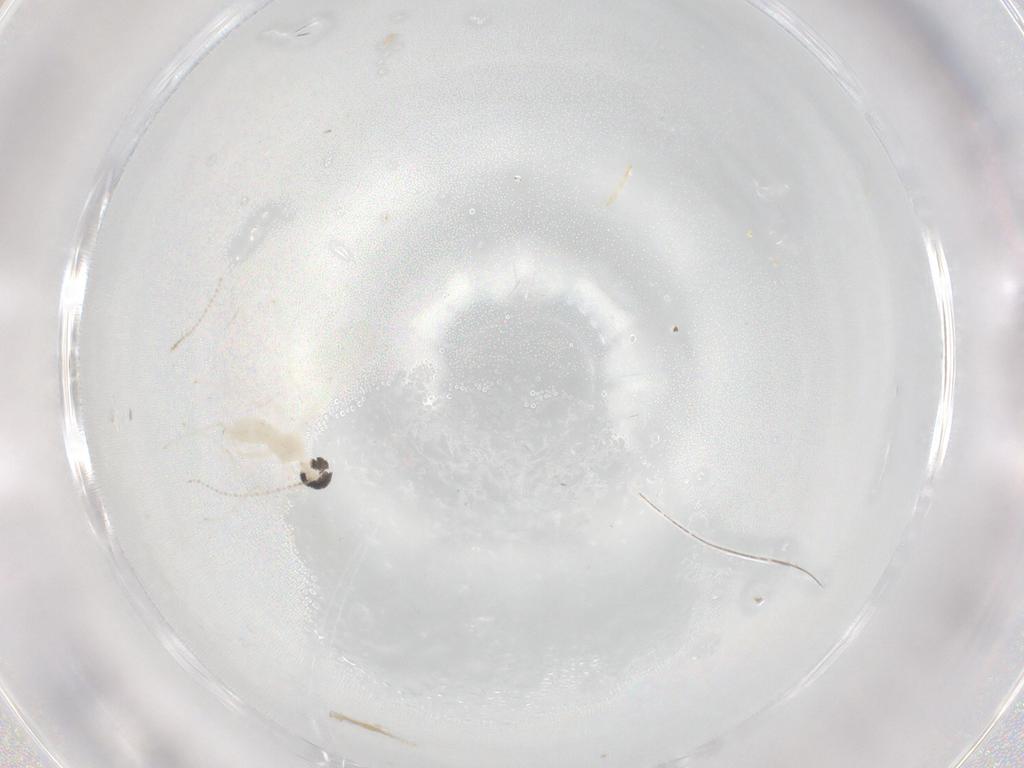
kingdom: Animalia
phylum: Arthropoda
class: Insecta
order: Diptera
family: Cecidomyiidae
